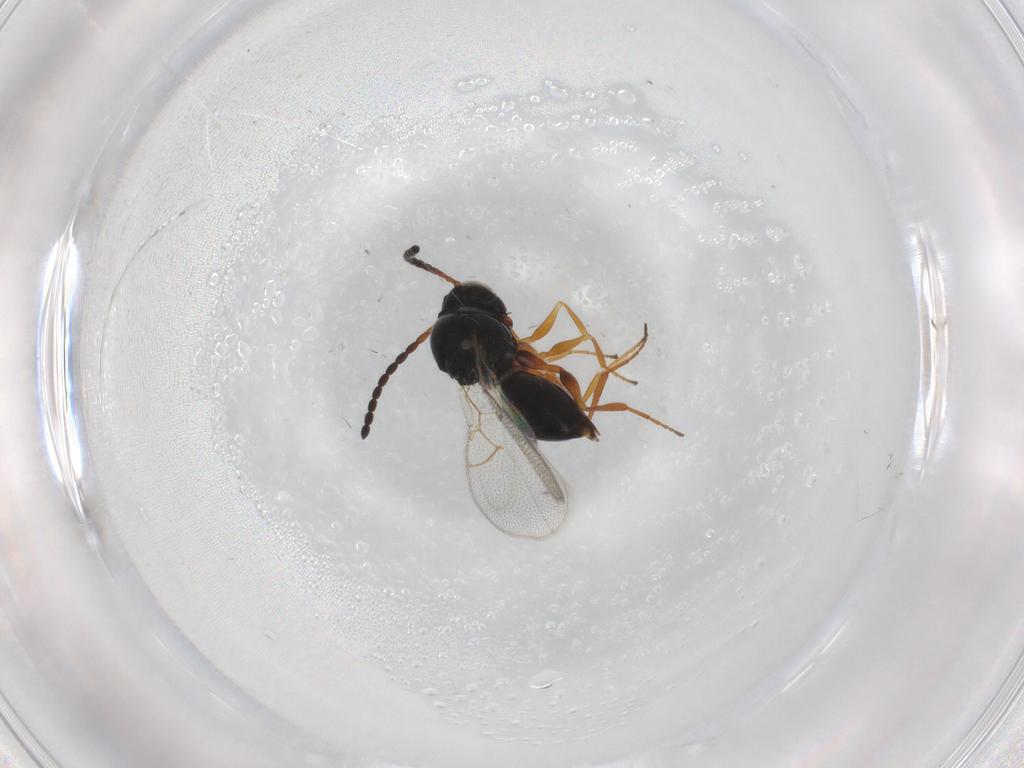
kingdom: Animalia
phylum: Arthropoda
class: Insecta
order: Hymenoptera
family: Figitidae
